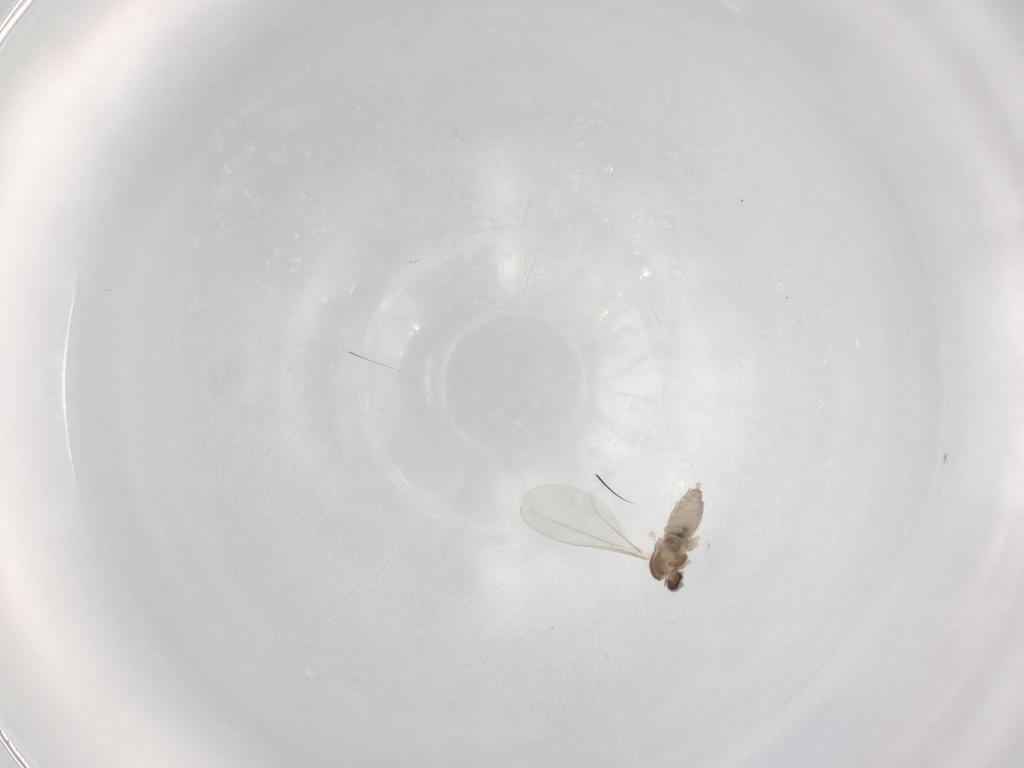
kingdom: Animalia
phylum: Arthropoda
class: Insecta
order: Diptera
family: Cecidomyiidae
